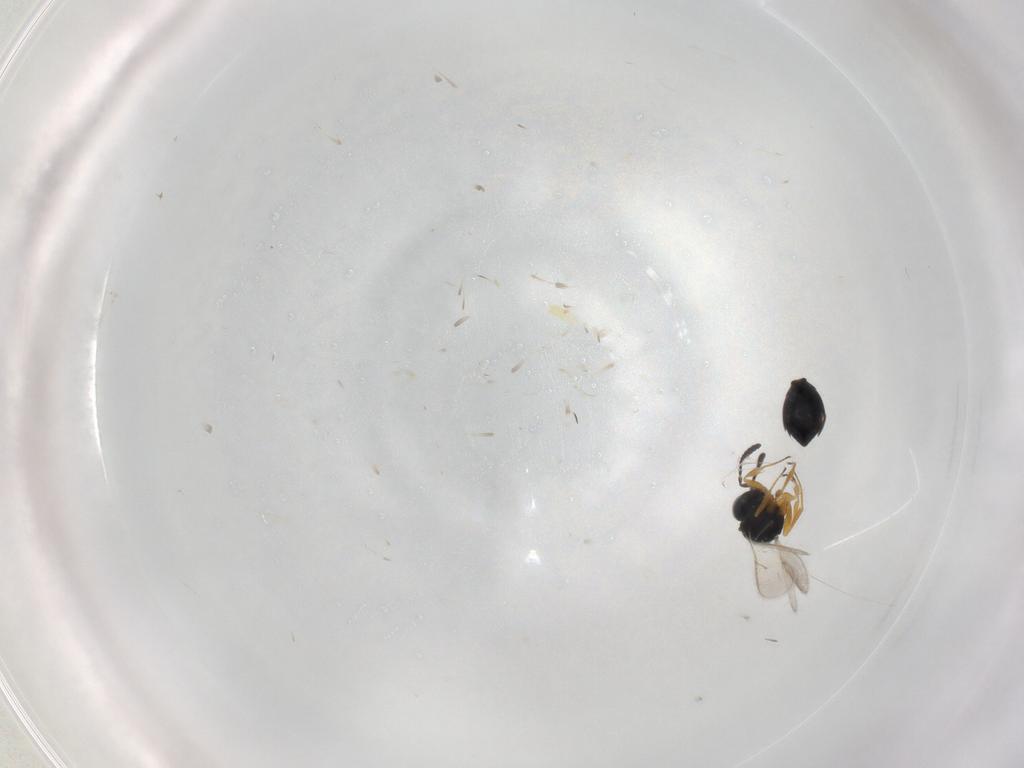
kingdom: Animalia
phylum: Arthropoda
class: Insecta
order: Hymenoptera
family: Scelionidae
